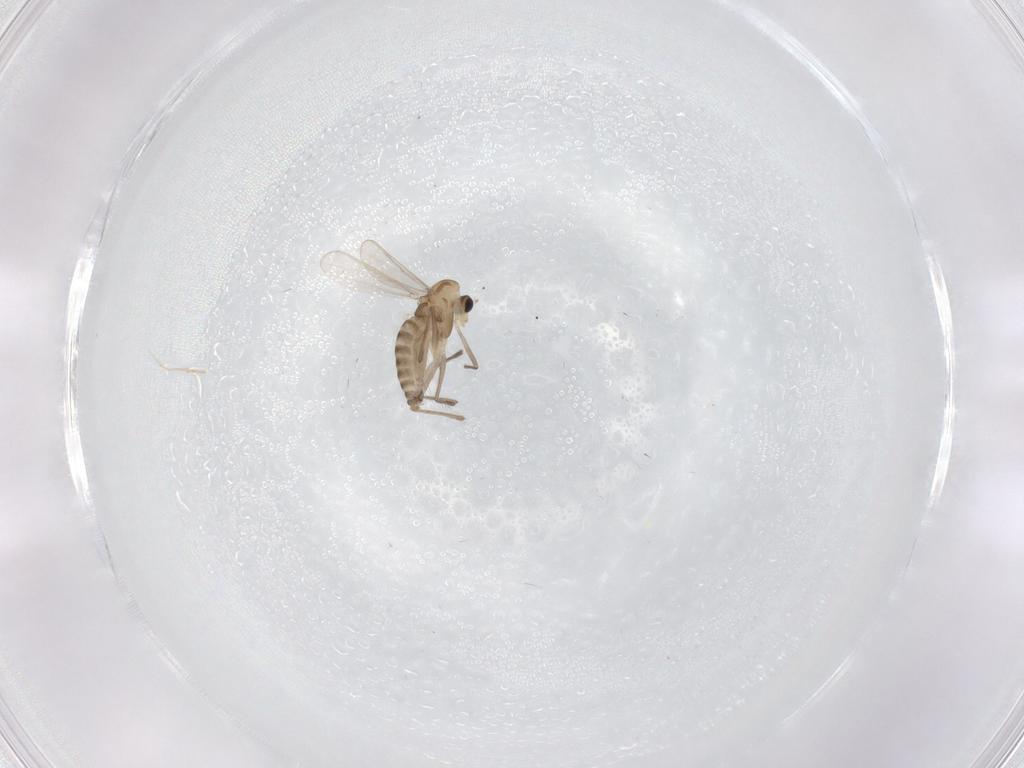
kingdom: Animalia
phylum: Arthropoda
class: Insecta
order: Diptera
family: Chironomidae
